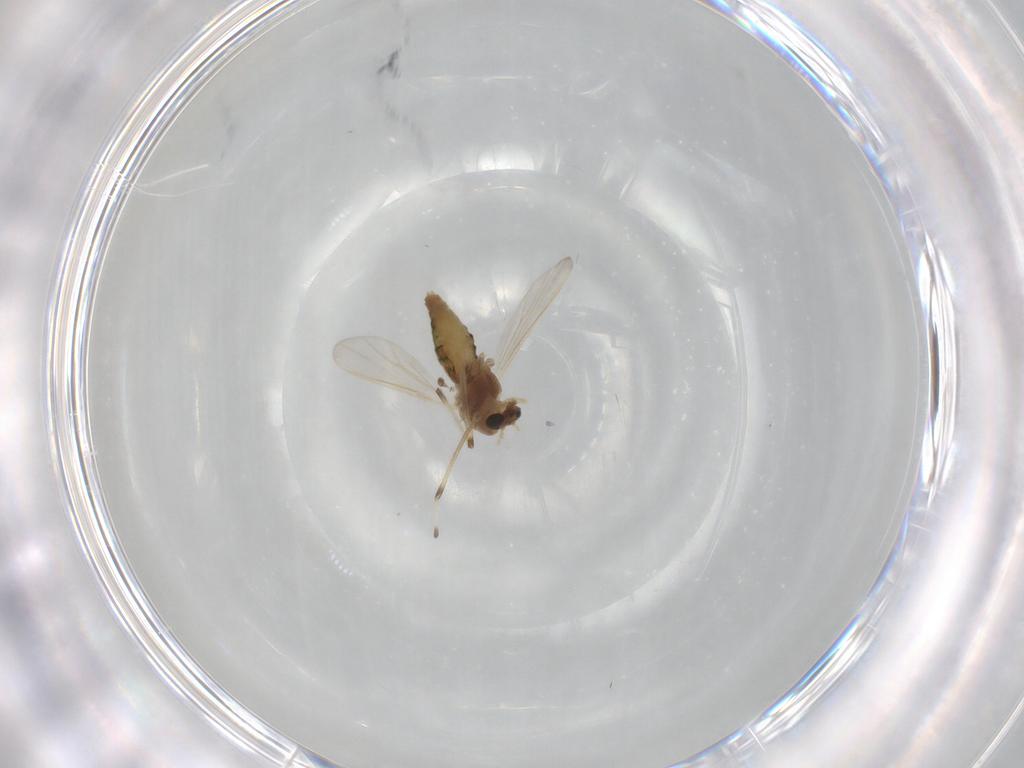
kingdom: Animalia
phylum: Arthropoda
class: Insecta
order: Diptera
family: Chironomidae
